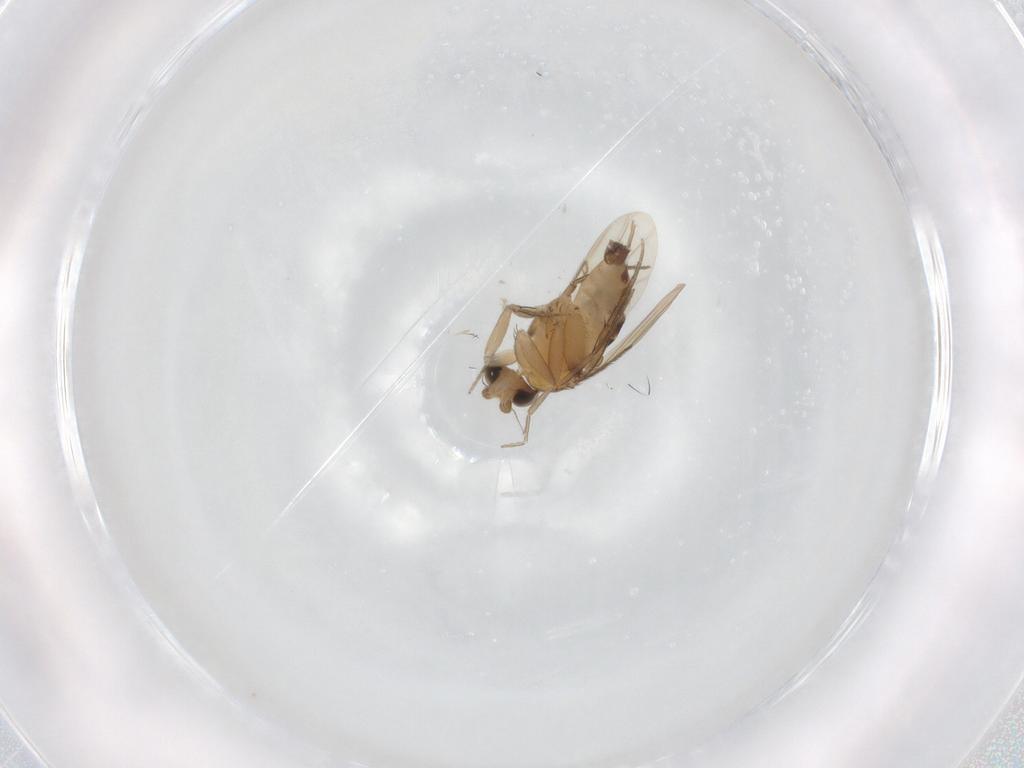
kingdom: Animalia
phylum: Arthropoda
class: Insecta
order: Diptera
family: Phoridae
